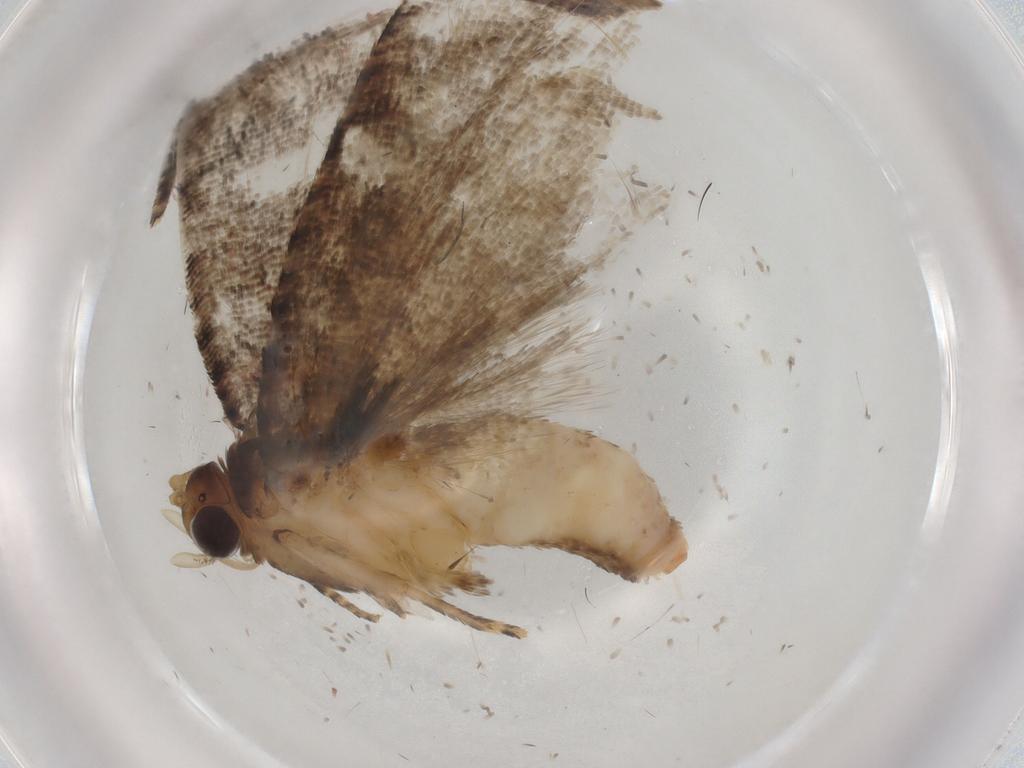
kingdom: Animalia
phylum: Arthropoda
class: Insecta
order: Lepidoptera
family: Tortricidae
